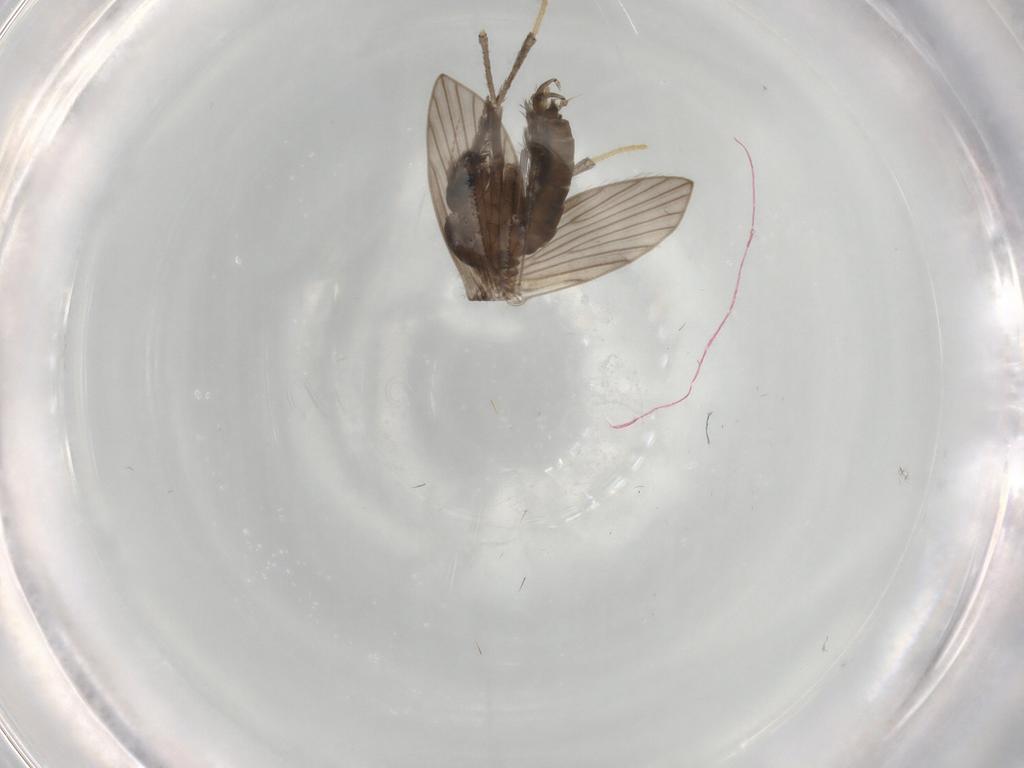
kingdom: Animalia
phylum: Arthropoda
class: Insecta
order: Diptera
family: Psychodidae
